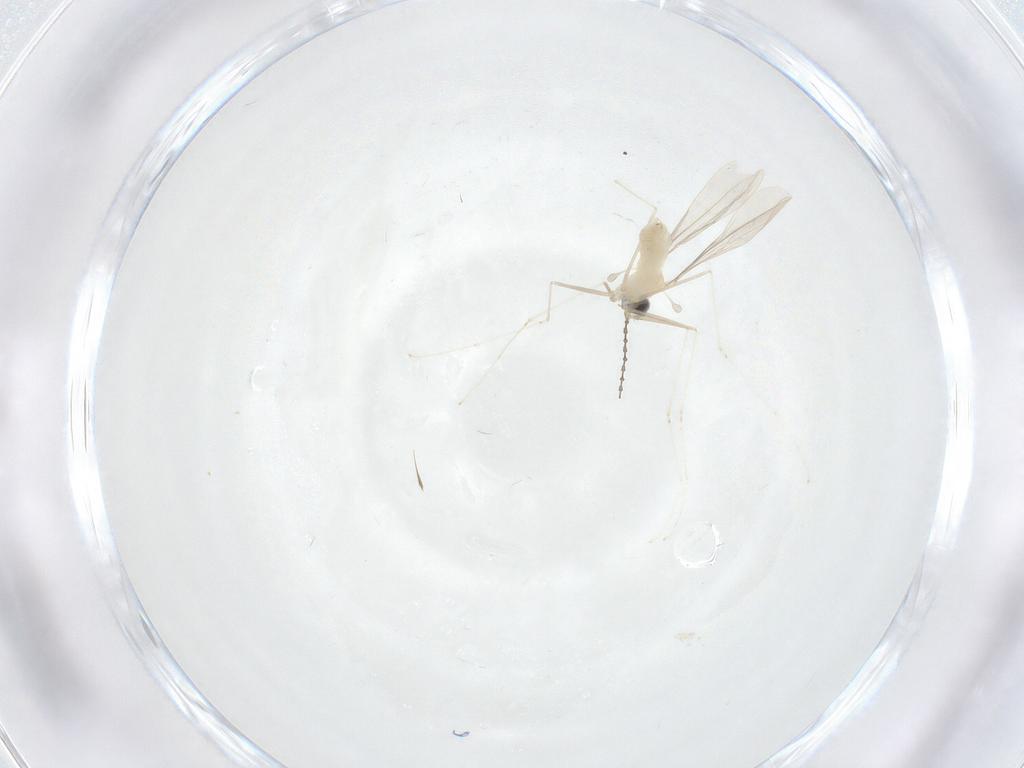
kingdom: Animalia
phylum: Arthropoda
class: Insecta
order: Diptera
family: Cecidomyiidae
